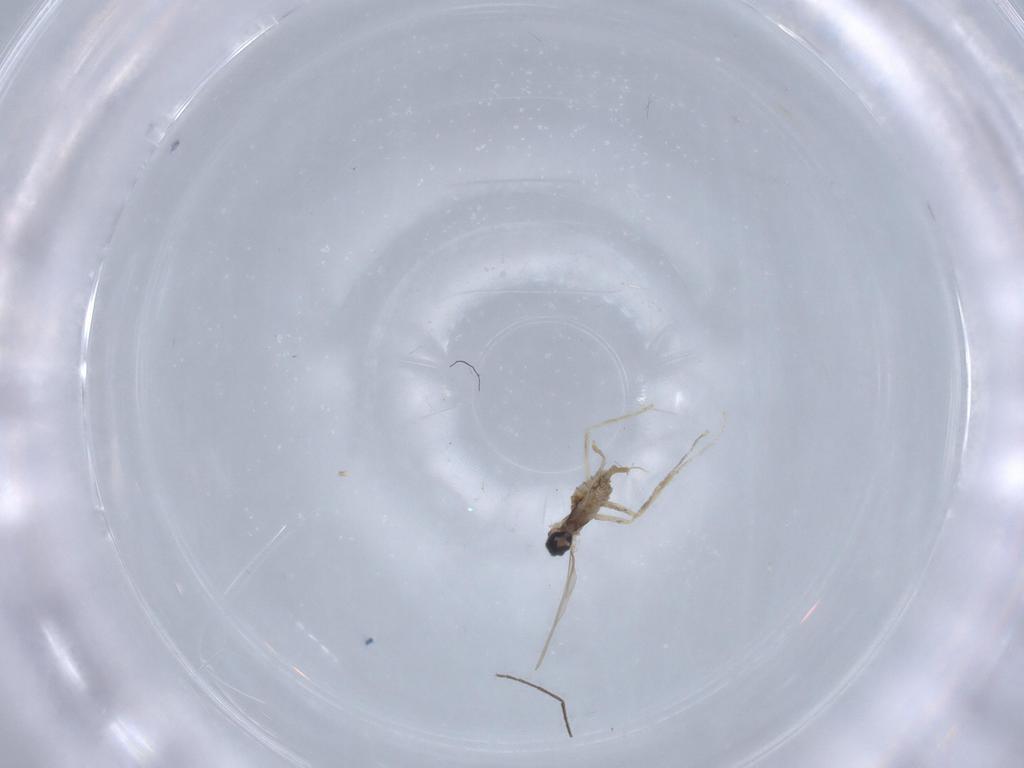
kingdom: Animalia
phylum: Arthropoda
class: Insecta
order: Diptera
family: Cecidomyiidae
